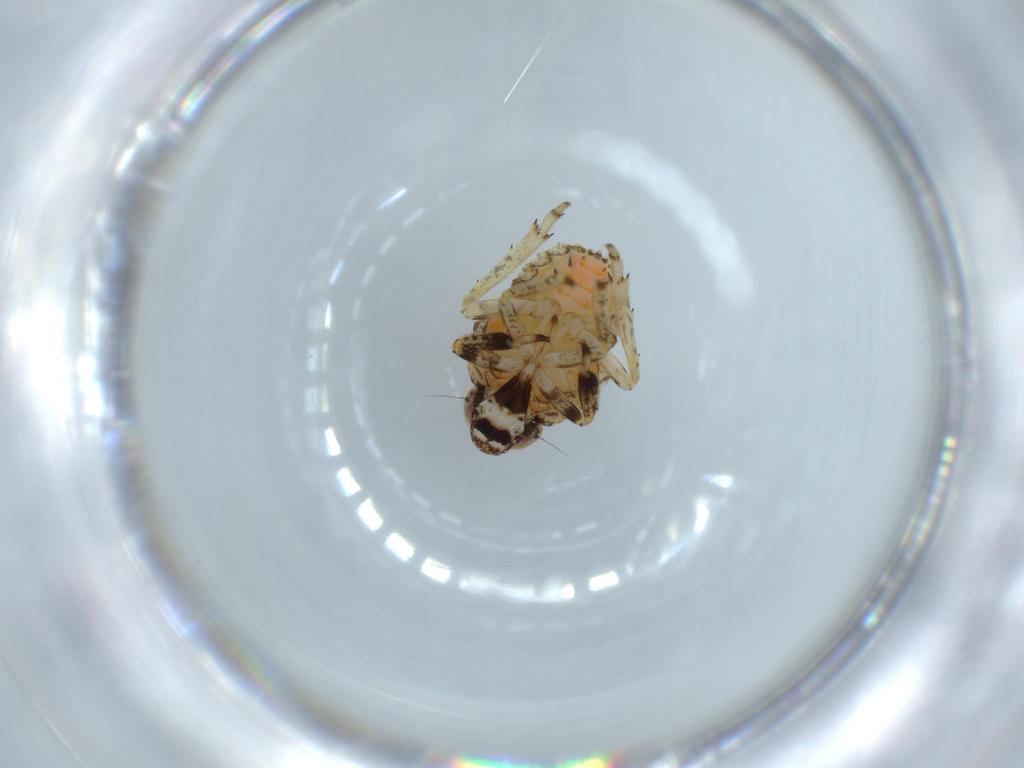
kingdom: Animalia
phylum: Arthropoda
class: Insecta
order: Hemiptera
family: Issidae
